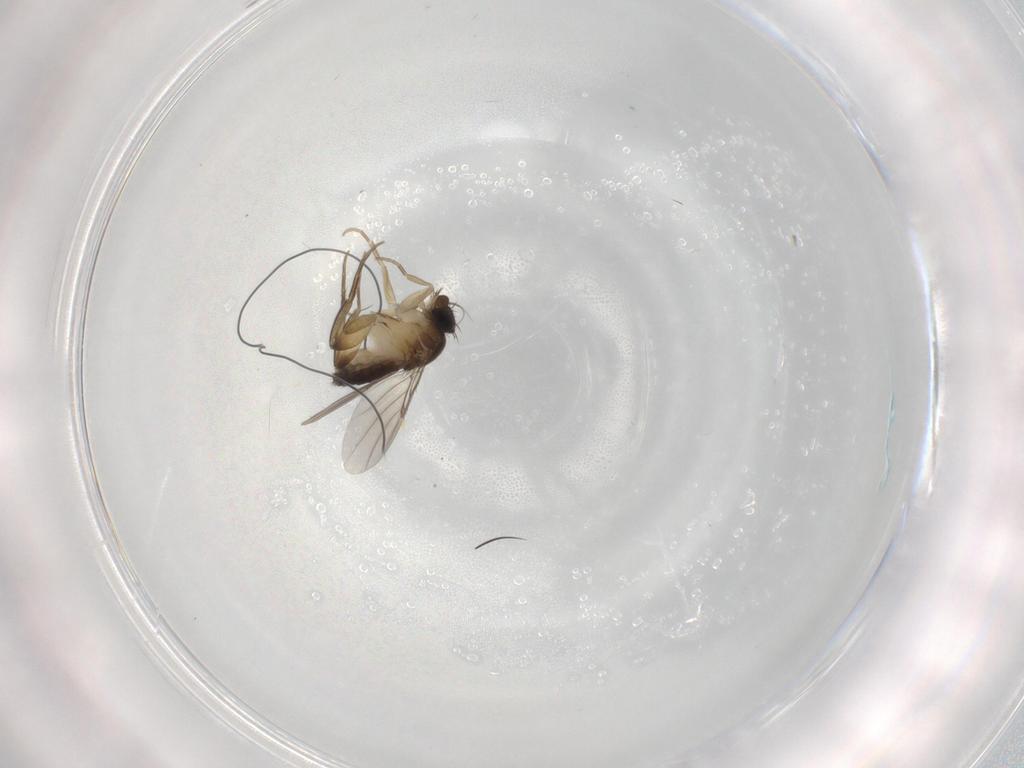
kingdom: Animalia
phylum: Arthropoda
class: Insecta
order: Diptera
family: Phoridae
